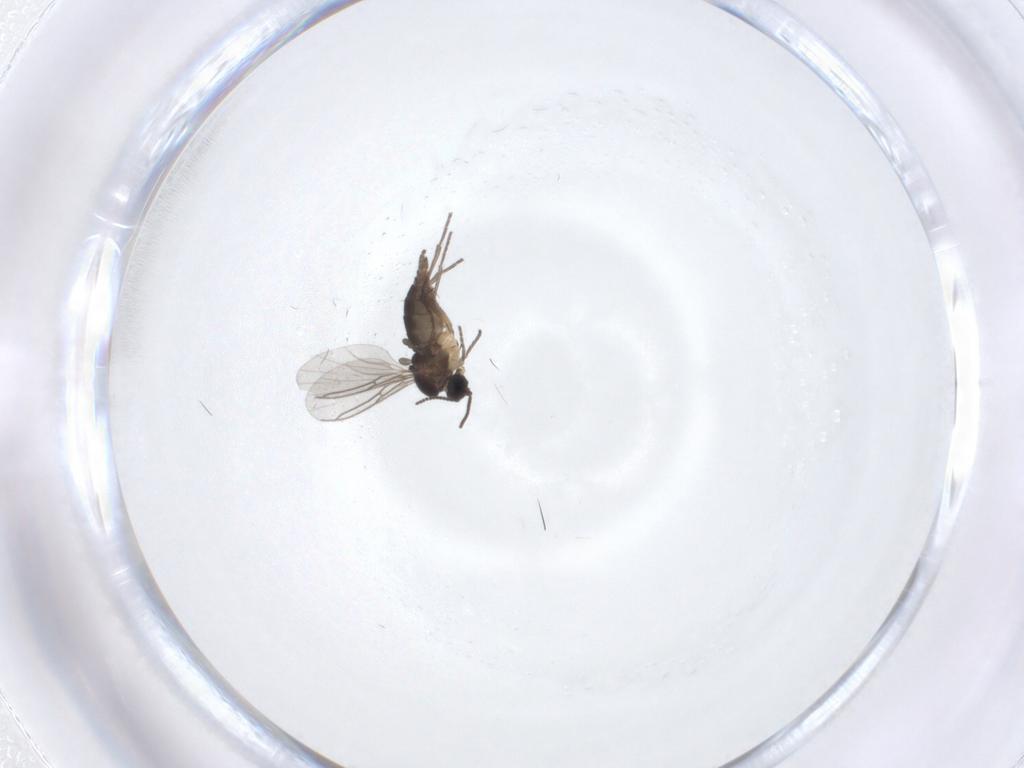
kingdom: Animalia
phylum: Arthropoda
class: Insecta
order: Diptera
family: Sciaridae
